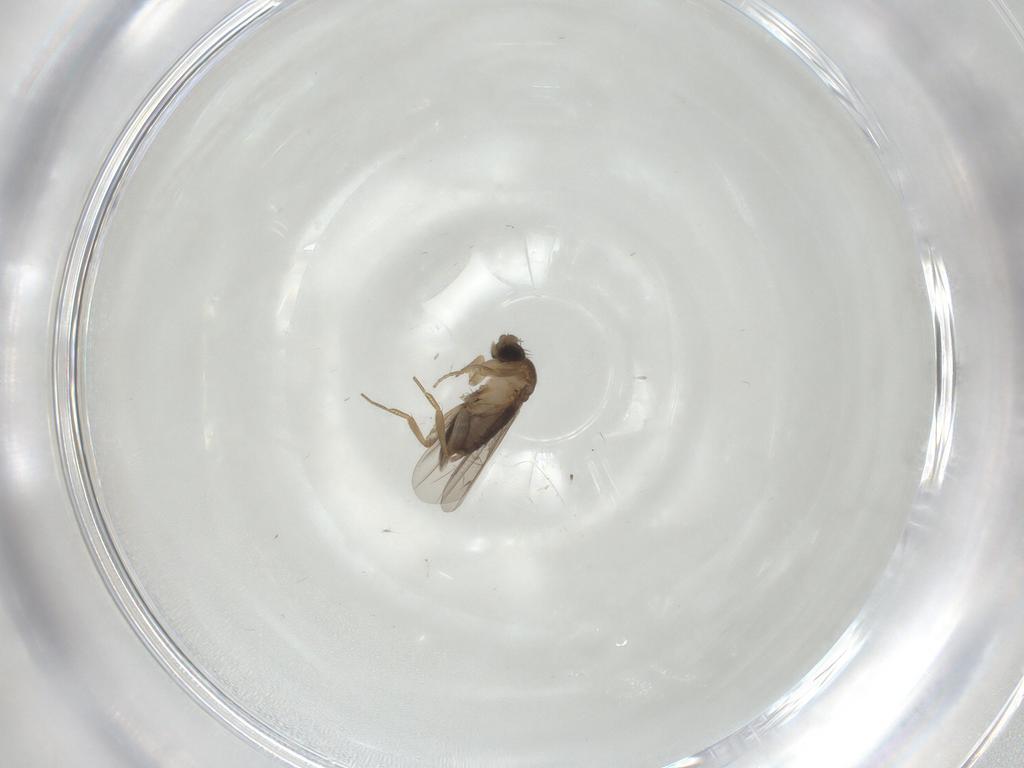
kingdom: Animalia
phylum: Arthropoda
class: Insecta
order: Diptera
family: Phoridae
